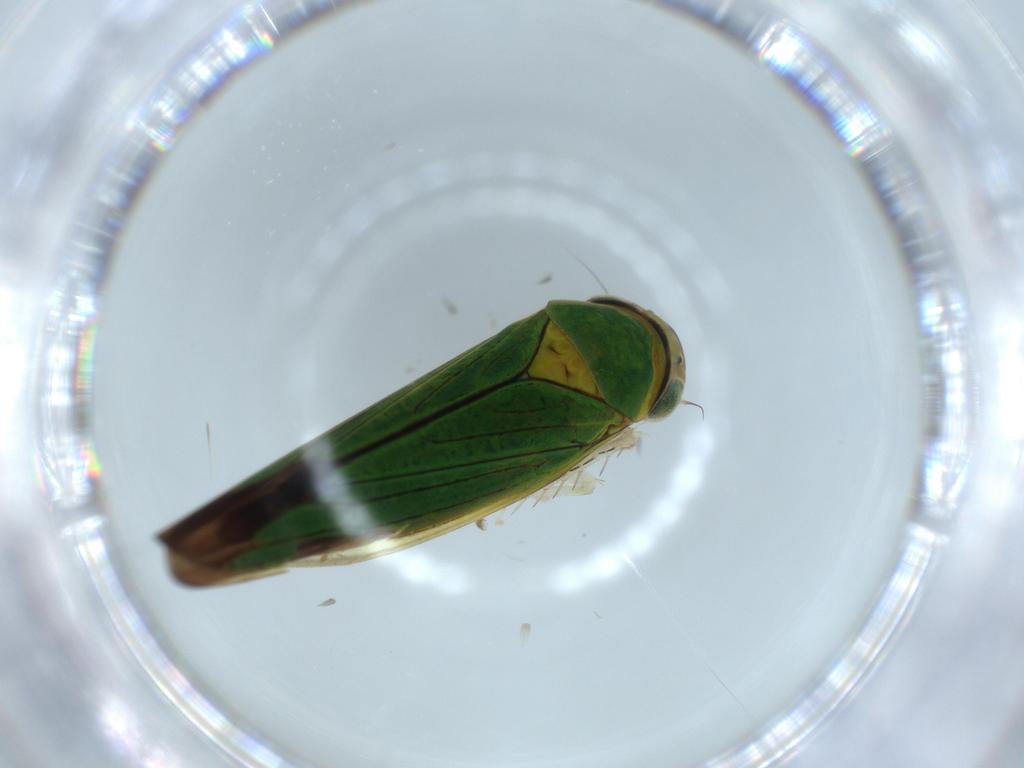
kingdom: Animalia
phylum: Arthropoda
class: Insecta
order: Hemiptera
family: Cicadellidae
